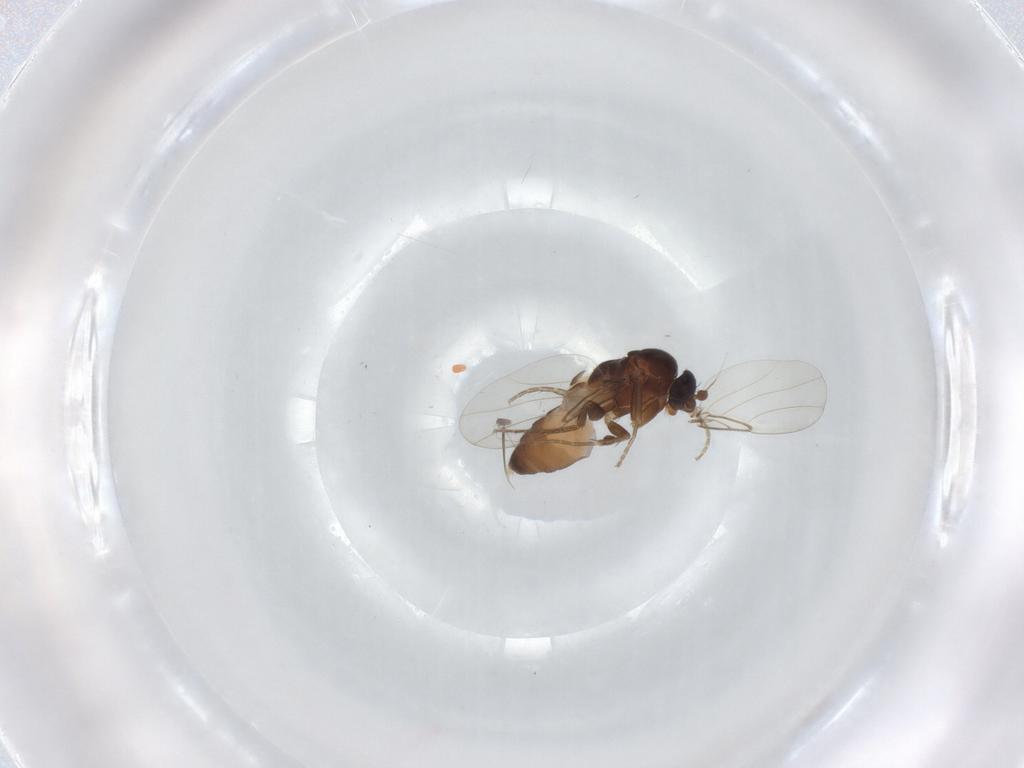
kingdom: Animalia
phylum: Arthropoda
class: Insecta
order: Diptera
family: Phoridae
